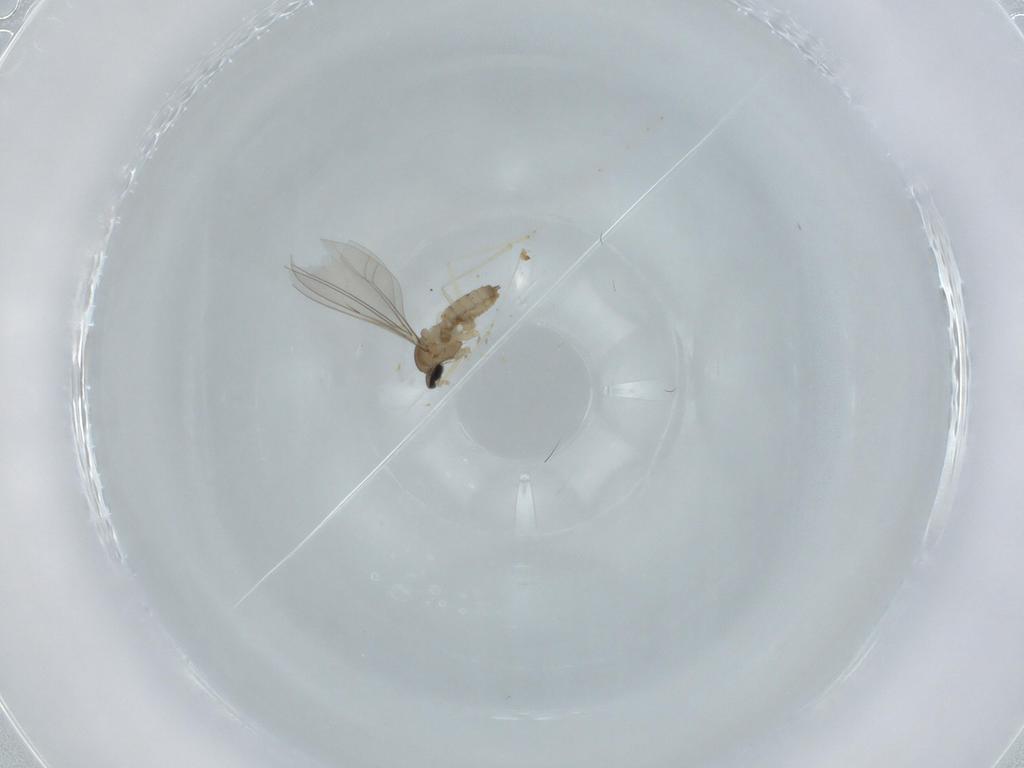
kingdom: Animalia
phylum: Arthropoda
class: Insecta
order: Diptera
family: Cecidomyiidae
